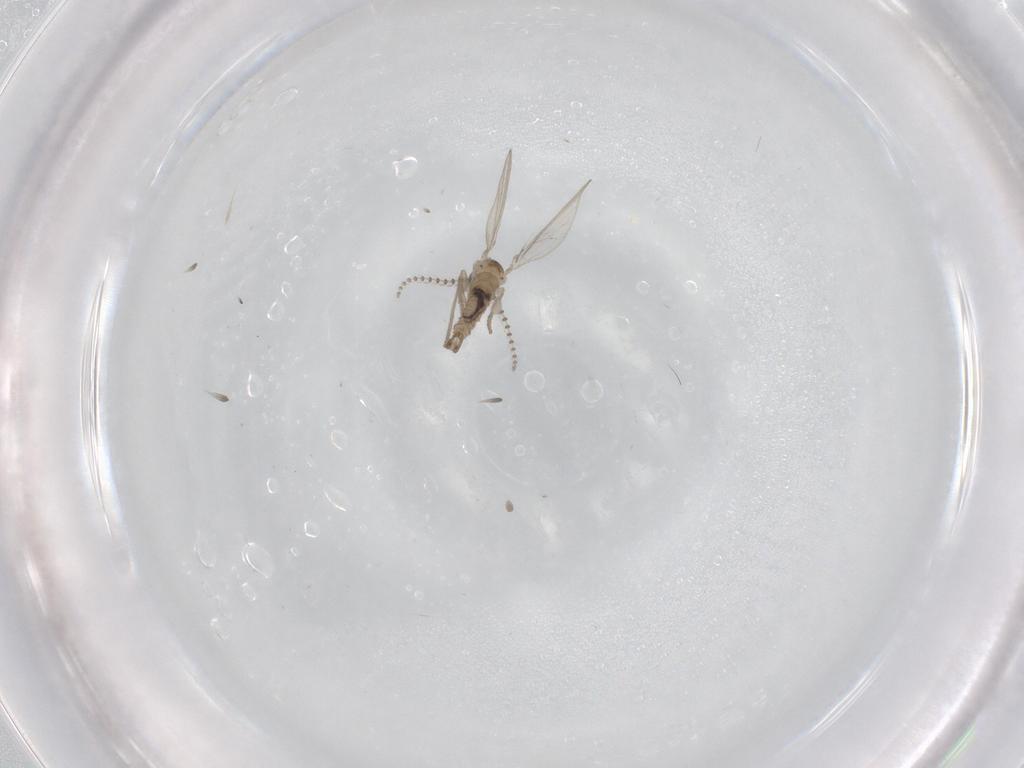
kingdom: Animalia
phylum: Arthropoda
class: Insecta
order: Diptera
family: Psychodidae
